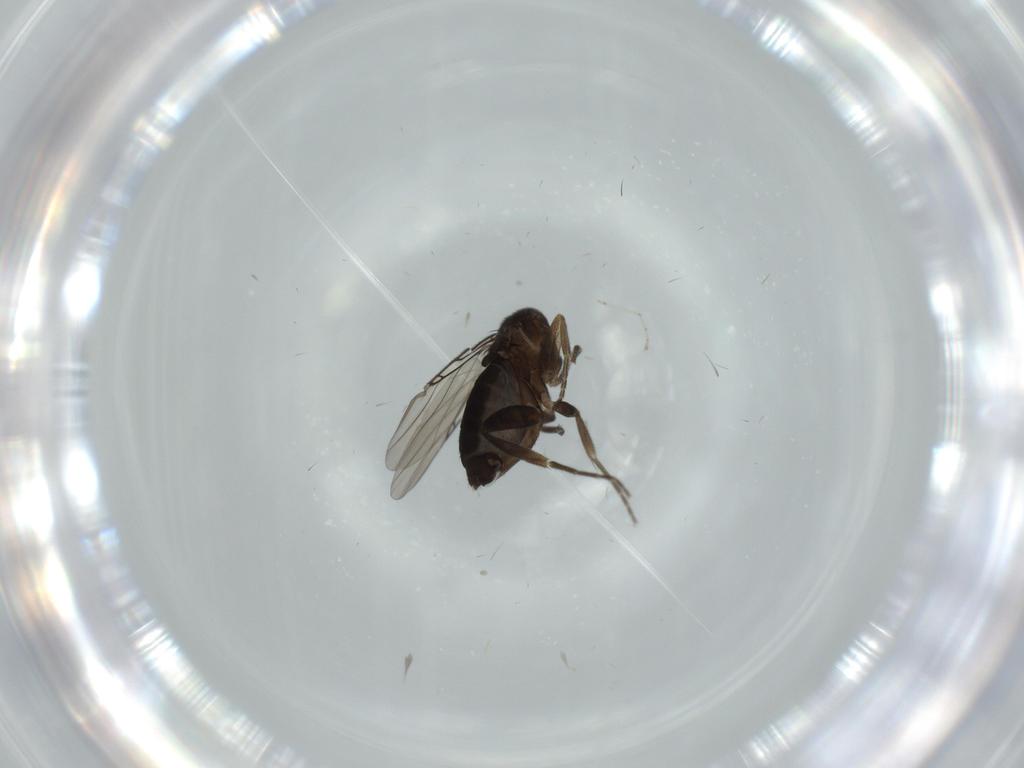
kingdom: Animalia
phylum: Arthropoda
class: Insecta
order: Diptera
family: Phoridae
